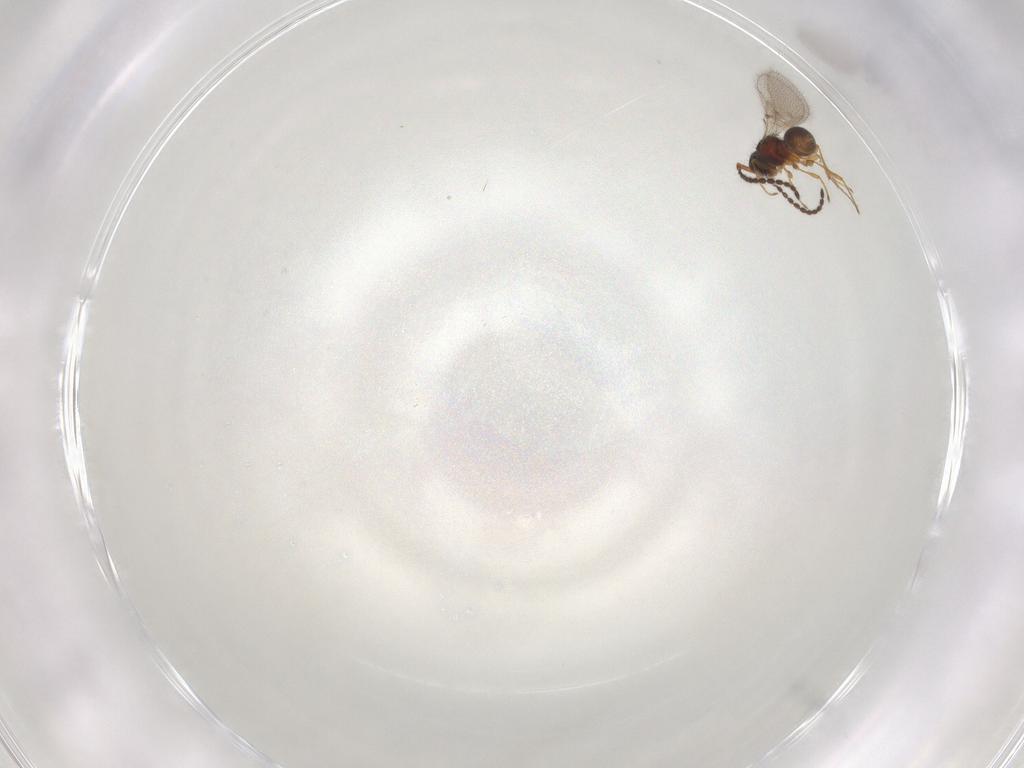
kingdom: Animalia
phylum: Arthropoda
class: Insecta
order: Hymenoptera
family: Diapriidae
